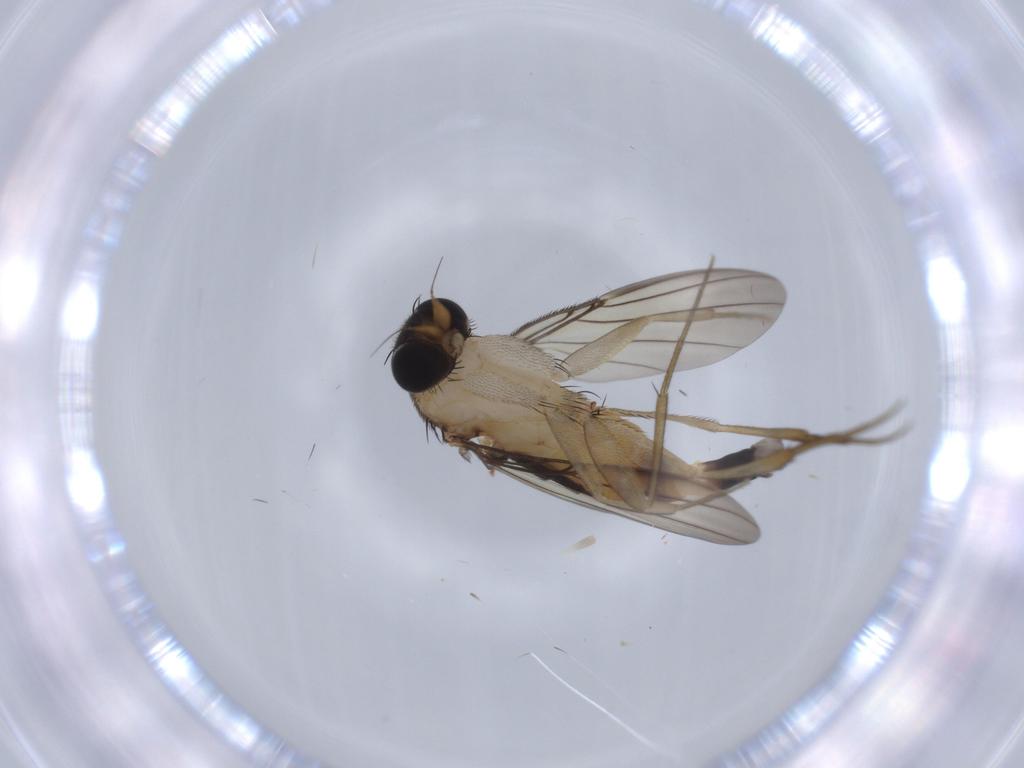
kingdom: Animalia
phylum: Arthropoda
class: Insecta
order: Diptera
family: Phoridae
